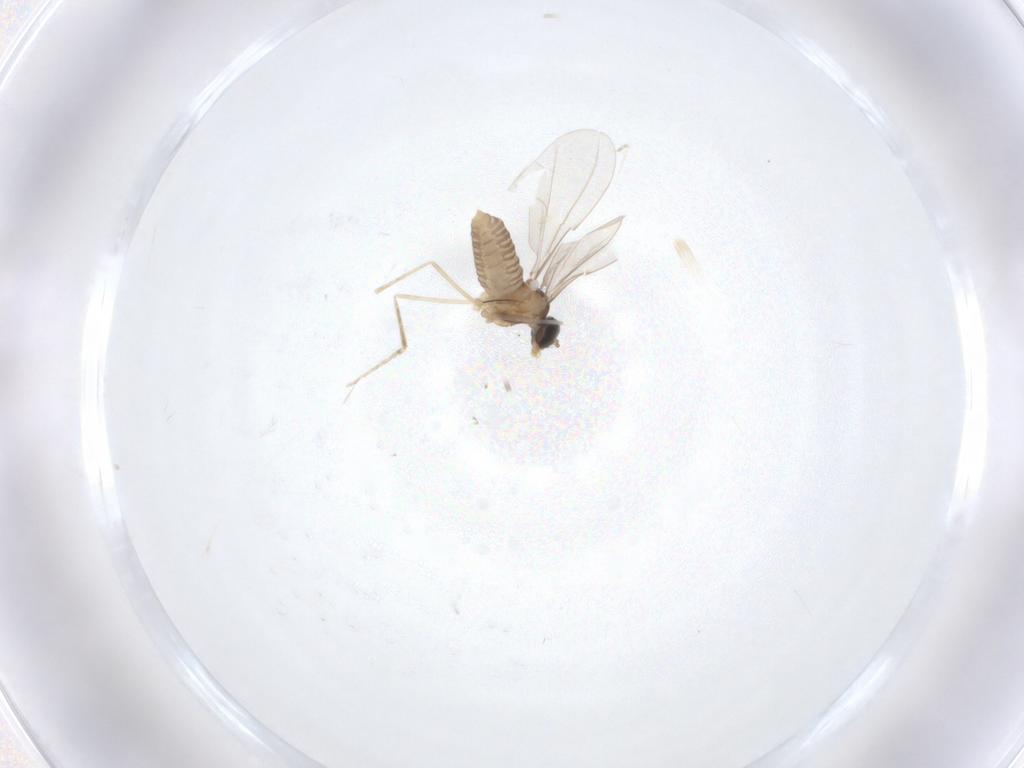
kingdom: Animalia
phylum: Arthropoda
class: Insecta
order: Diptera
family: Cecidomyiidae
